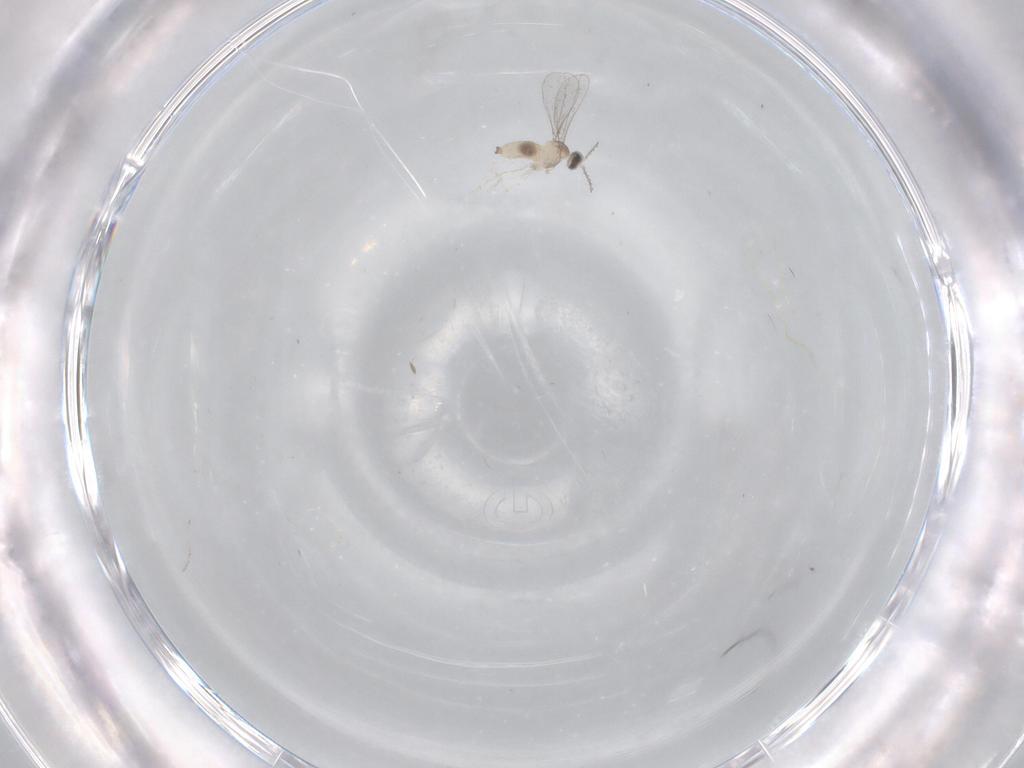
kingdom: Animalia
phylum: Arthropoda
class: Insecta
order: Diptera
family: Cecidomyiidae
